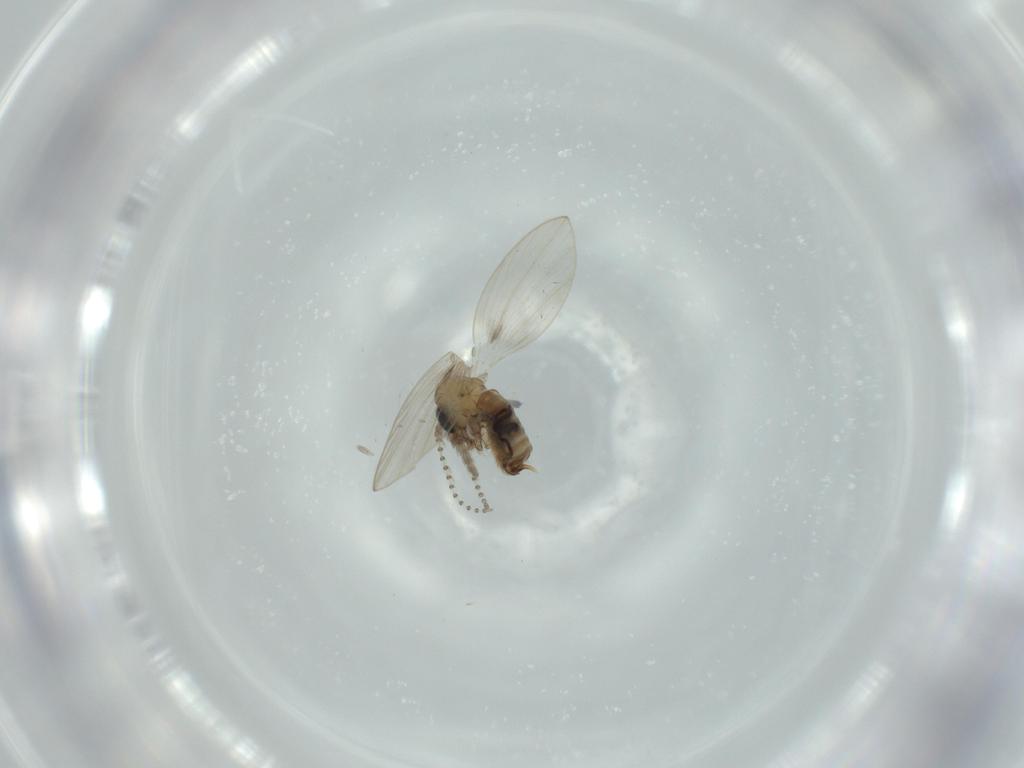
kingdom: Animalia
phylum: Arthropoda
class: Insecta
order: Diptera
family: Psychodidae
